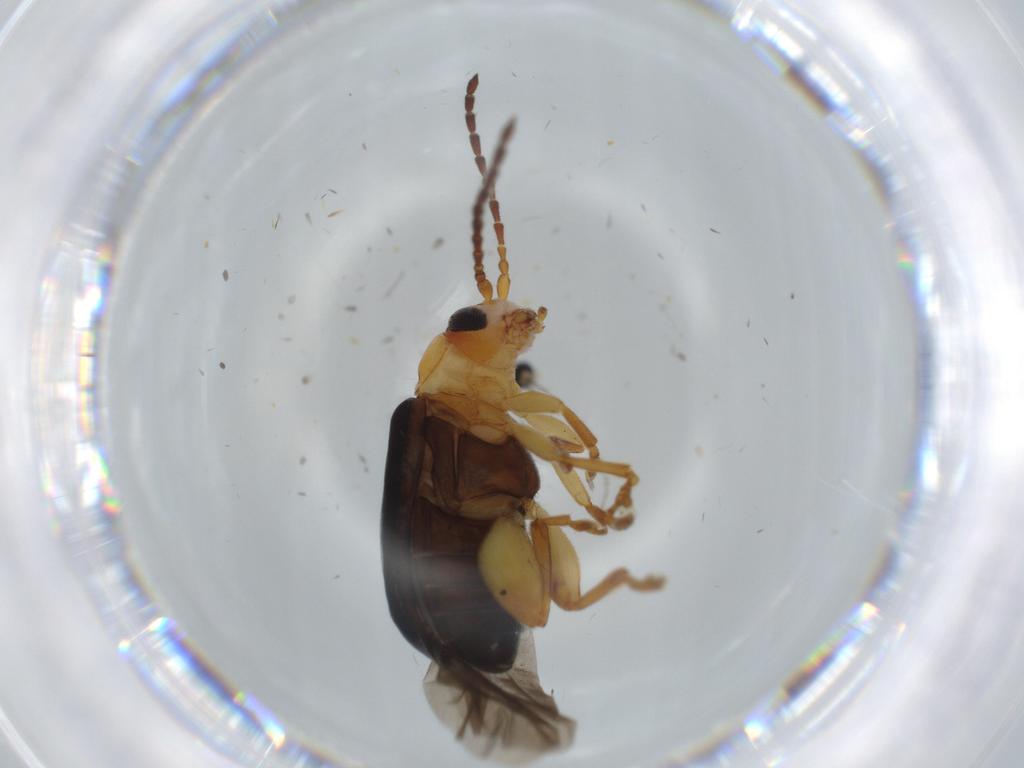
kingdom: Animalia
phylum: Arthropoda
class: Insecta
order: Coleoptera
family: Chrysomelidae
